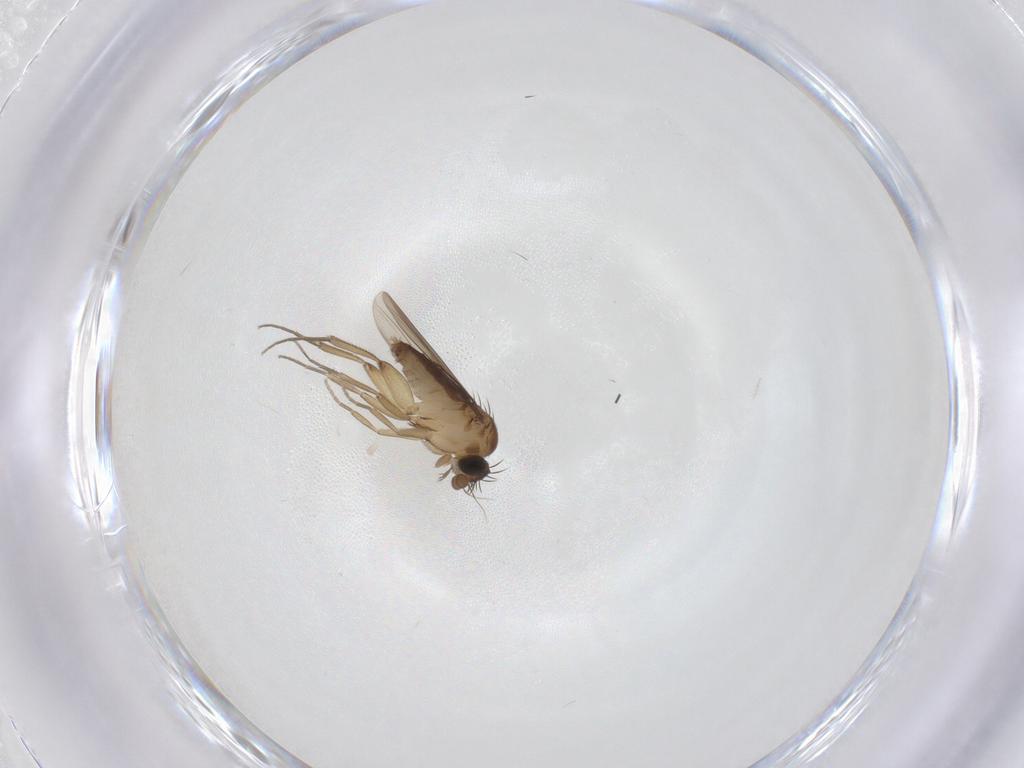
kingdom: Animalia
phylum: Arthropoda
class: Insecta
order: Diptera
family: Phoridae
